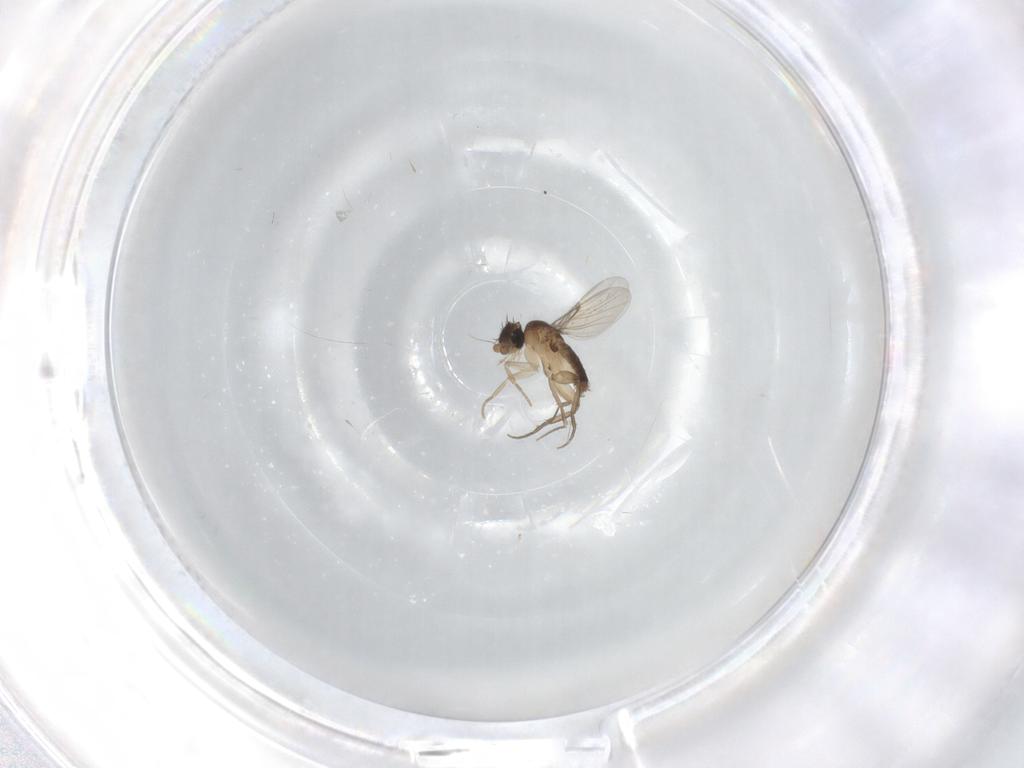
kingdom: Animalia
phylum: Arthropoda
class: Insecta
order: Diptera
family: Phoridae
